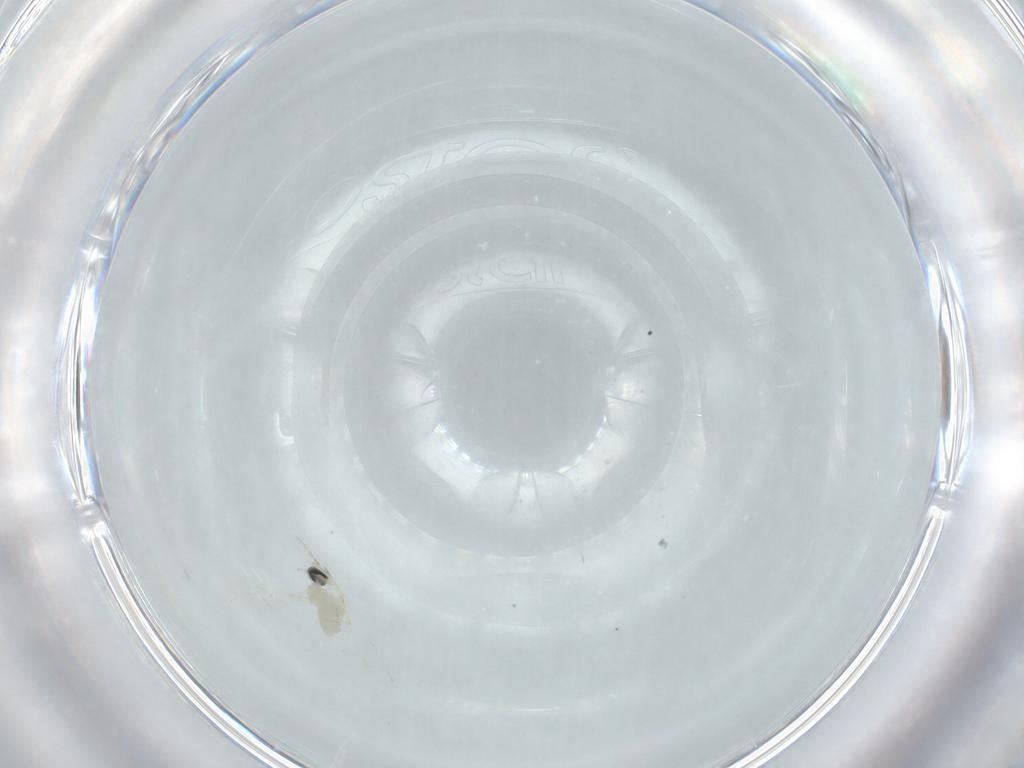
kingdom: Animalia
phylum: Arthropoda
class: Insecta
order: Diptera
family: Cecidomyiidae
